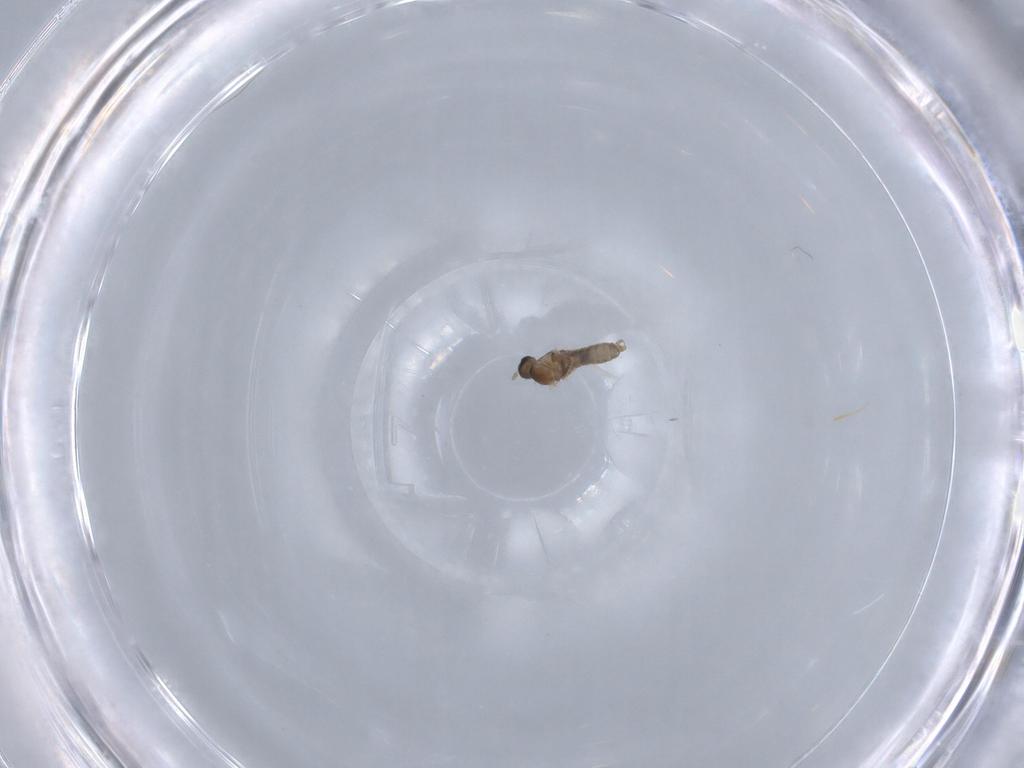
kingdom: Animalia
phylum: Arthropoda
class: Insecta
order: Diptera
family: Cecidomyiidae
